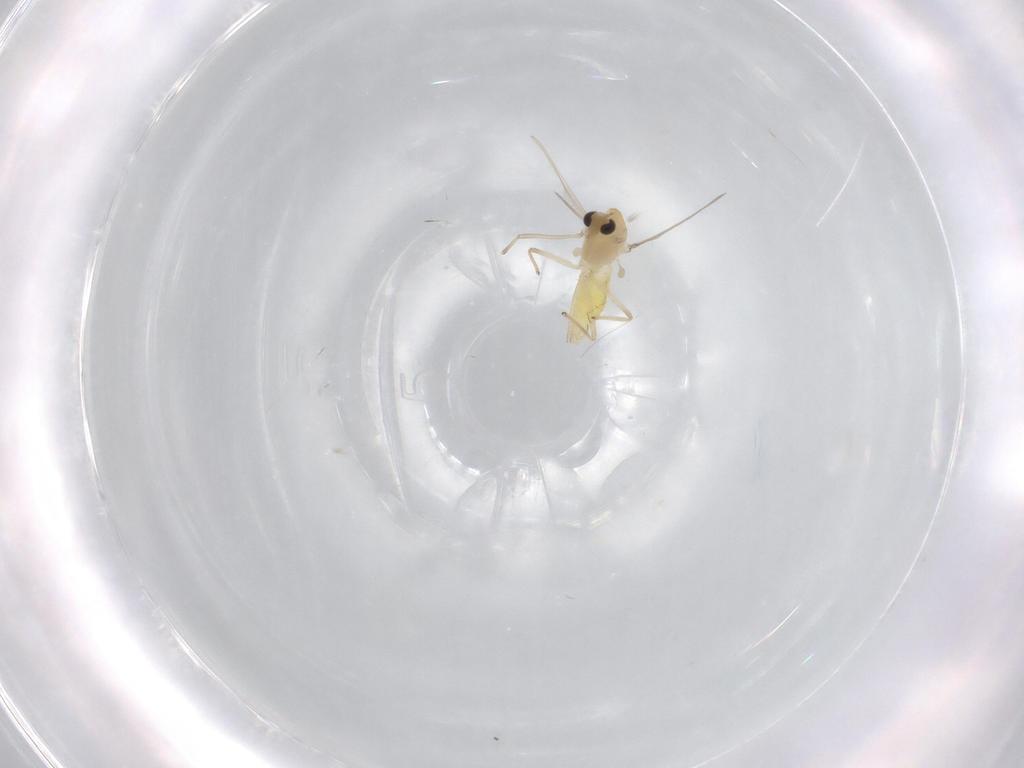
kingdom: Animalia
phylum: Arthropoda
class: Insecta
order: Diptera
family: Chironomidae
